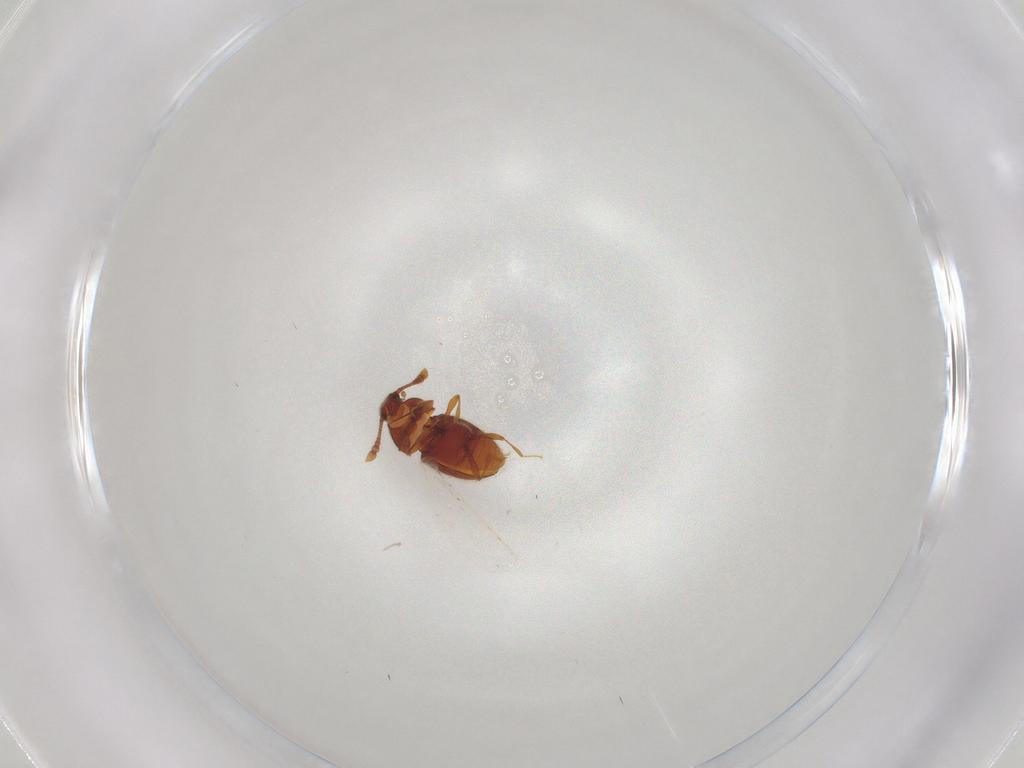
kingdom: Animalia
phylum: Arthropoda
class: Insecta
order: Coleoptera
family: Staphylinidae
